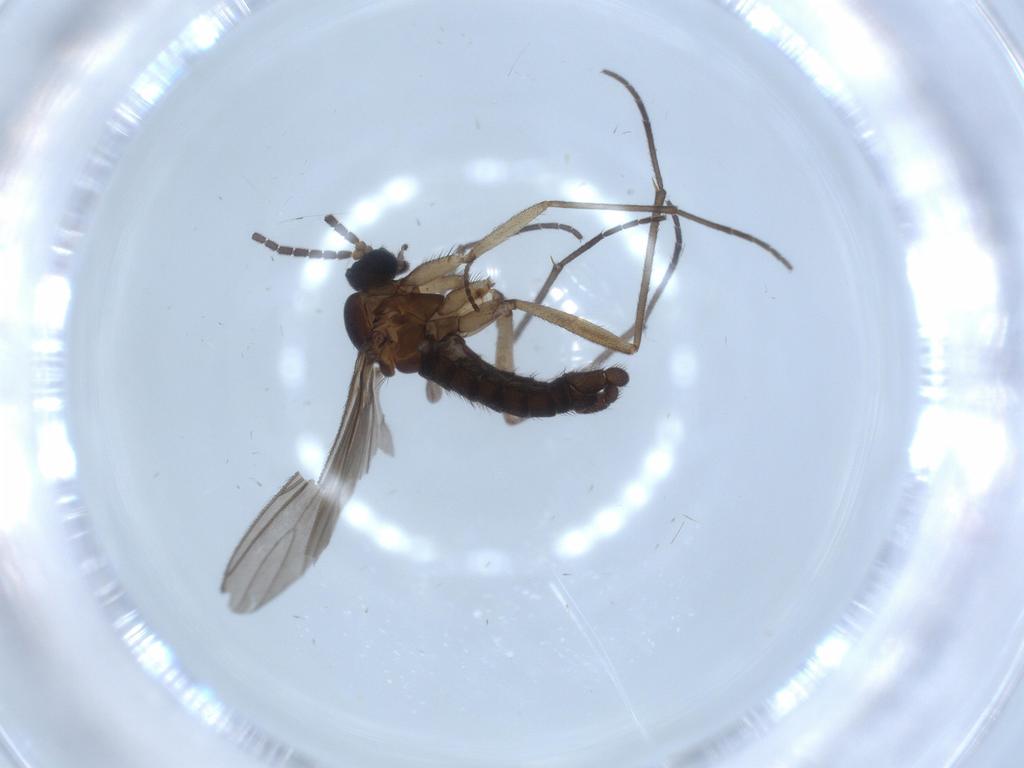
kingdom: Animalia
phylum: Arthropoda
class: Insecta
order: Diptera
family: Sciaridae
